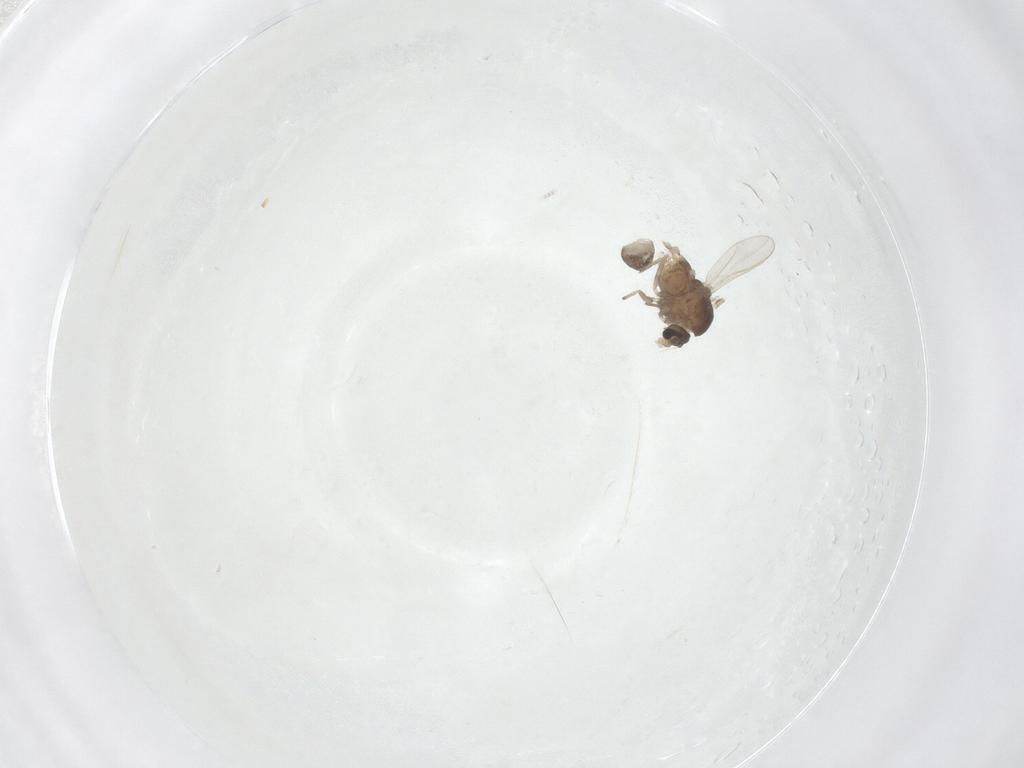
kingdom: Animalia
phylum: Arthropoda
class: Insecta
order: Diptera
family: Chironomidae
